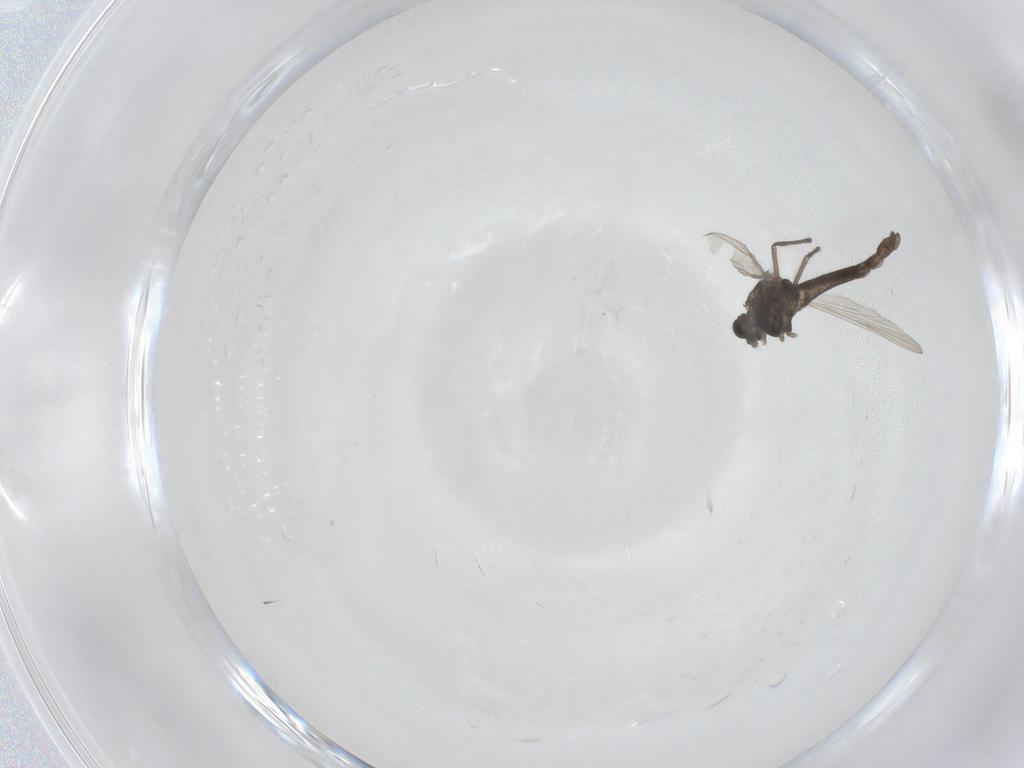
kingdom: Animalia
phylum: Arthropoda
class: Insecta
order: Diptera
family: Chironomidae
